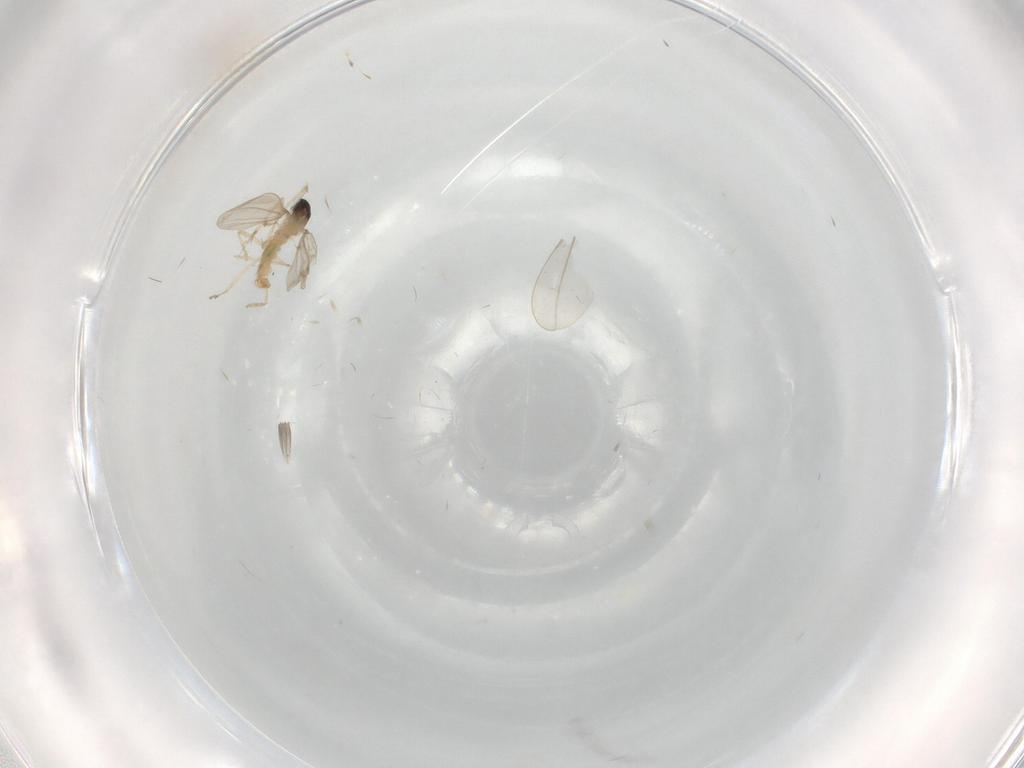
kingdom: Animalia
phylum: Arthropoda
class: Insecta
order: Diptera
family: Cecidomyiidae
